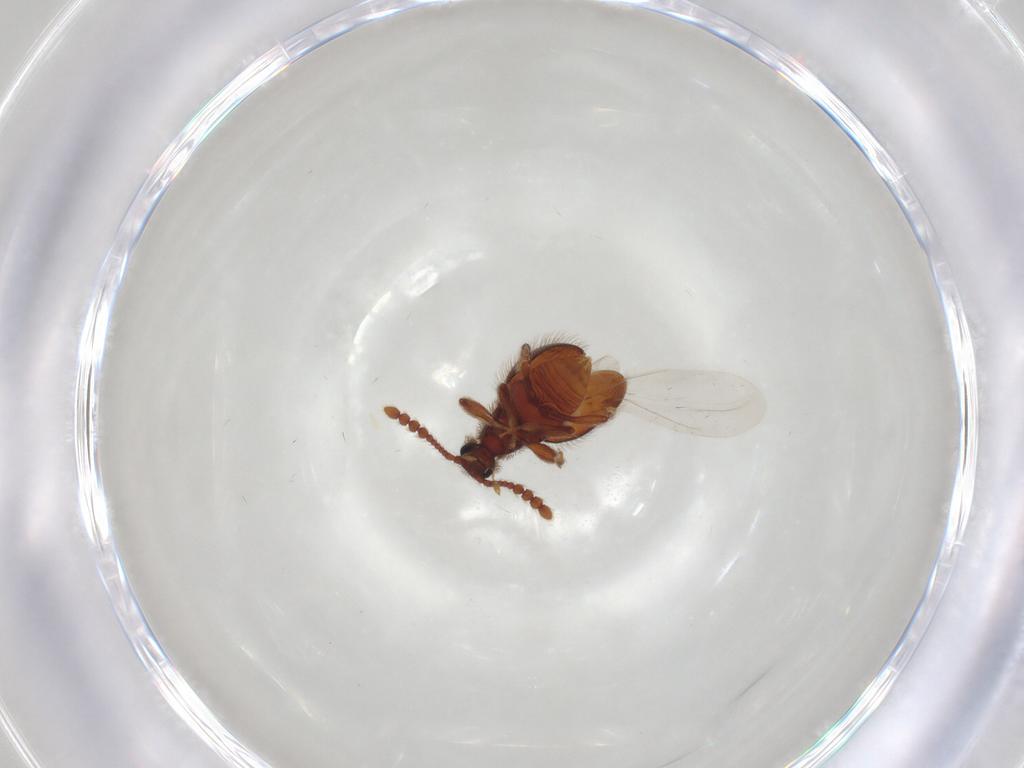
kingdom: Animalia
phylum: Arthropoda
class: Insecta
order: Coleoptera
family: Staphylinidae
